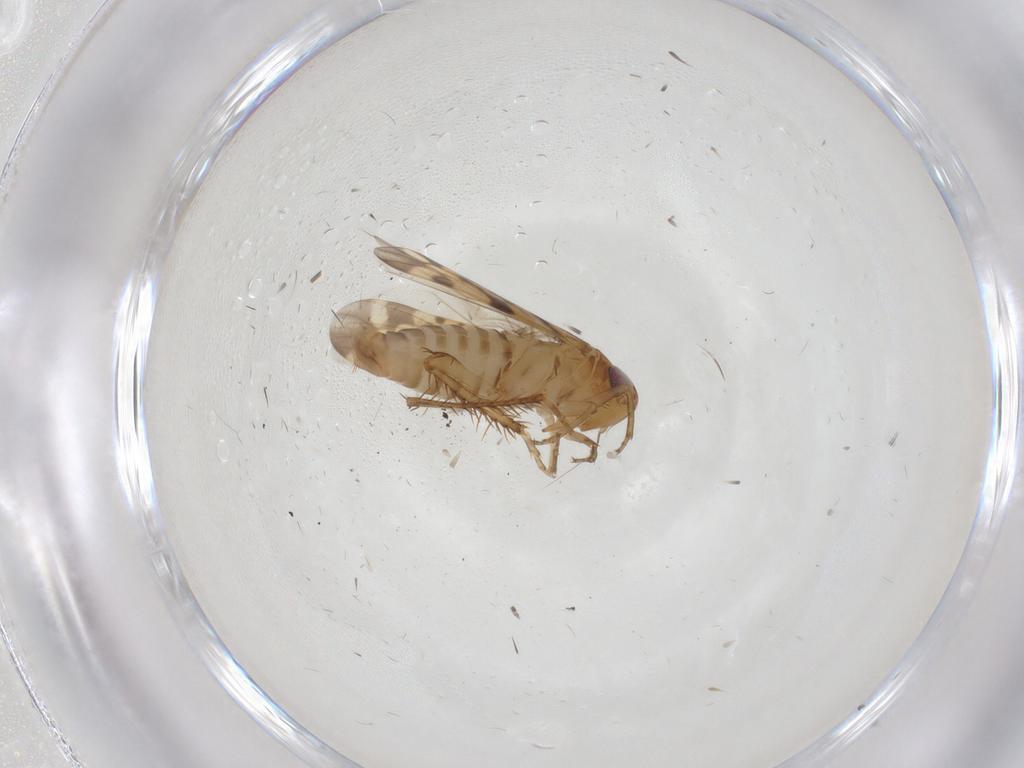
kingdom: Animalia
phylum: Arthropoda
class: Insecta
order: Hemiptera
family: Cicadellidae
